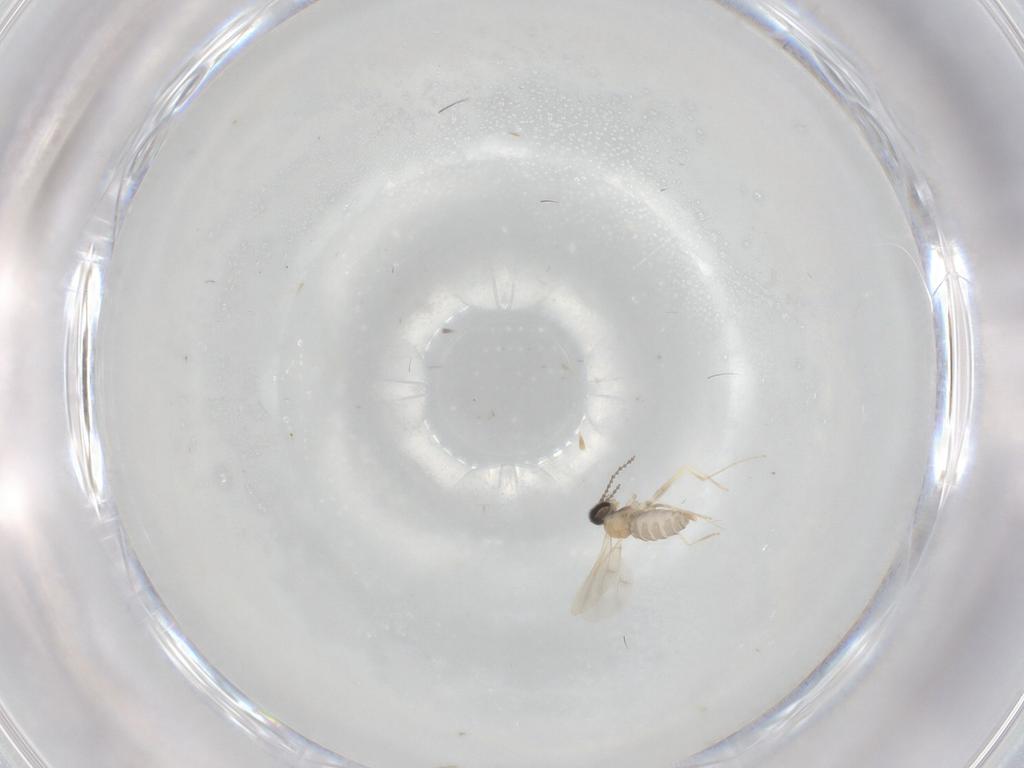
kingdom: Animalia
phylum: Arthropoda
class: Insecta
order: Diptera
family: Cecidomyiidae
